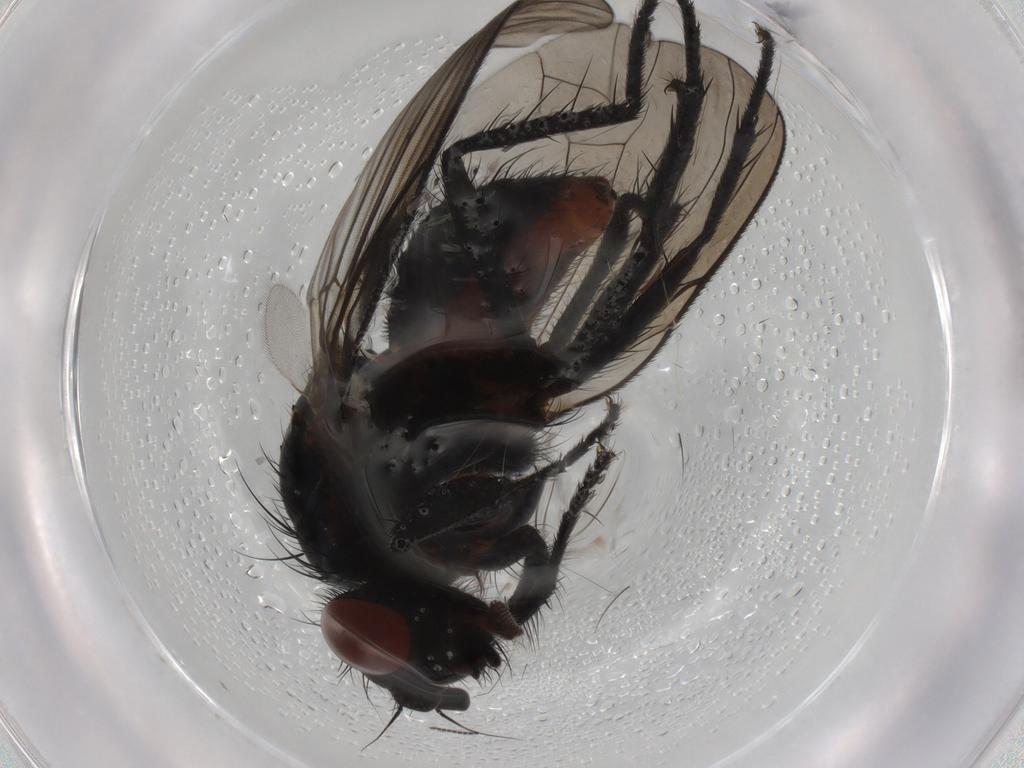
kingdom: Animalia
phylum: Arthropoda
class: Insecta
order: Diptera
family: Anthomyiidae
